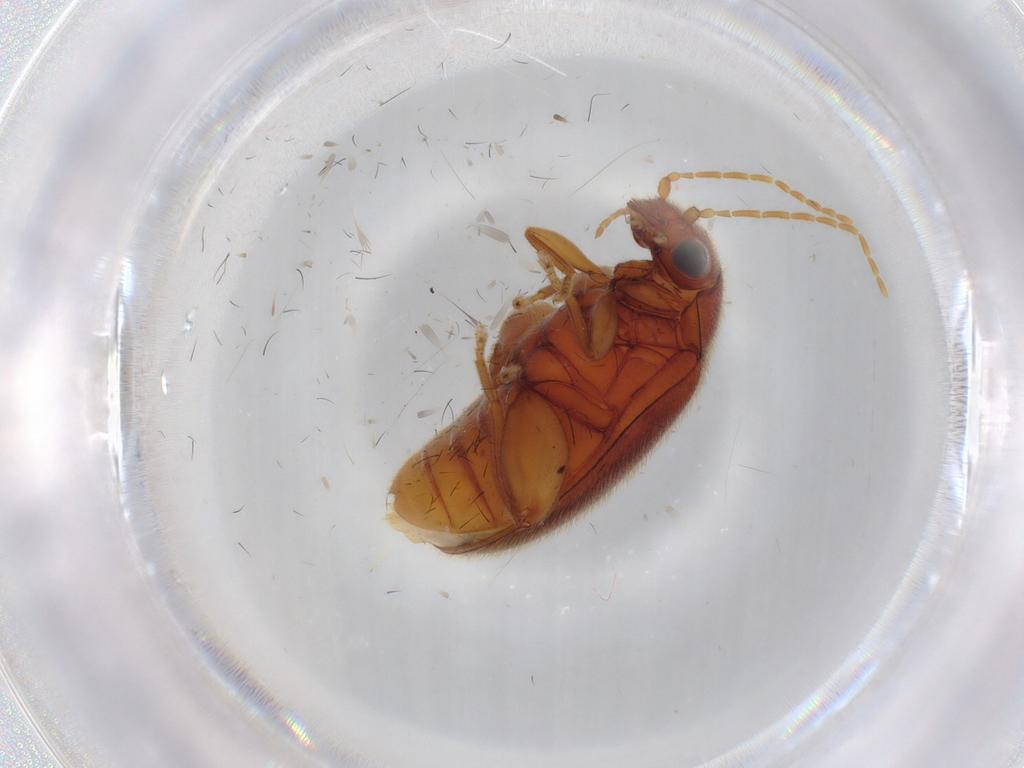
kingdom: Animalia
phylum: Arthropoda
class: Insecta
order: Coleoptera
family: Scirtidae
